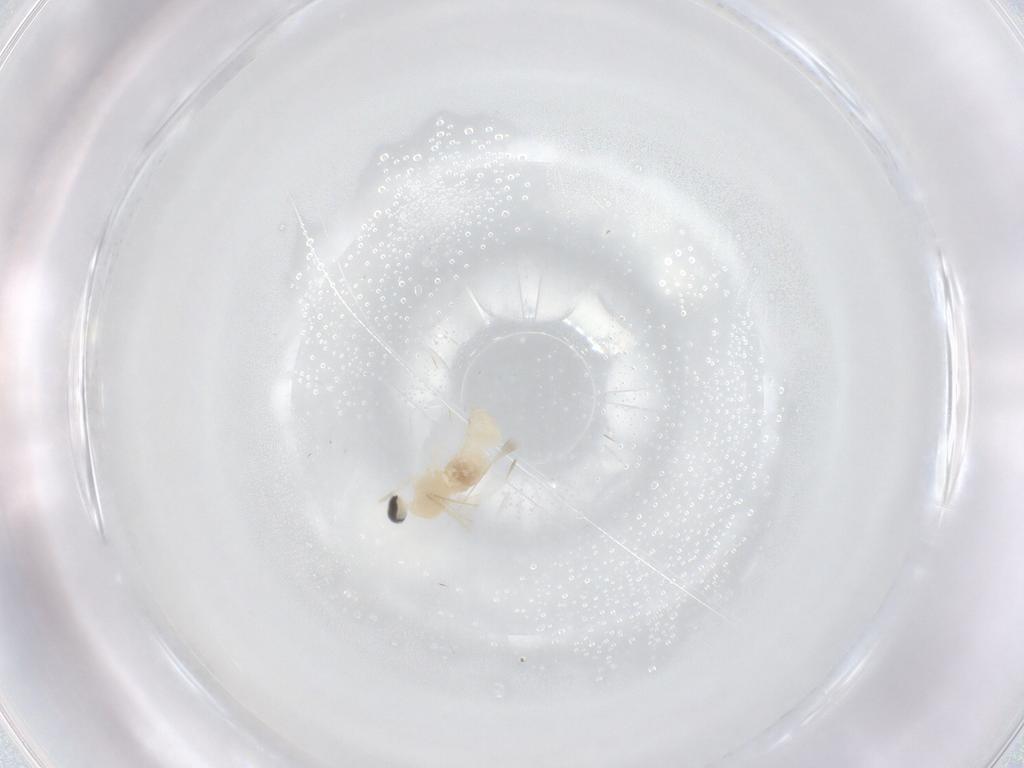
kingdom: Animalia
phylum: Arthropoda
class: Insecta
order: Diptera
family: Cecidomyiidae
